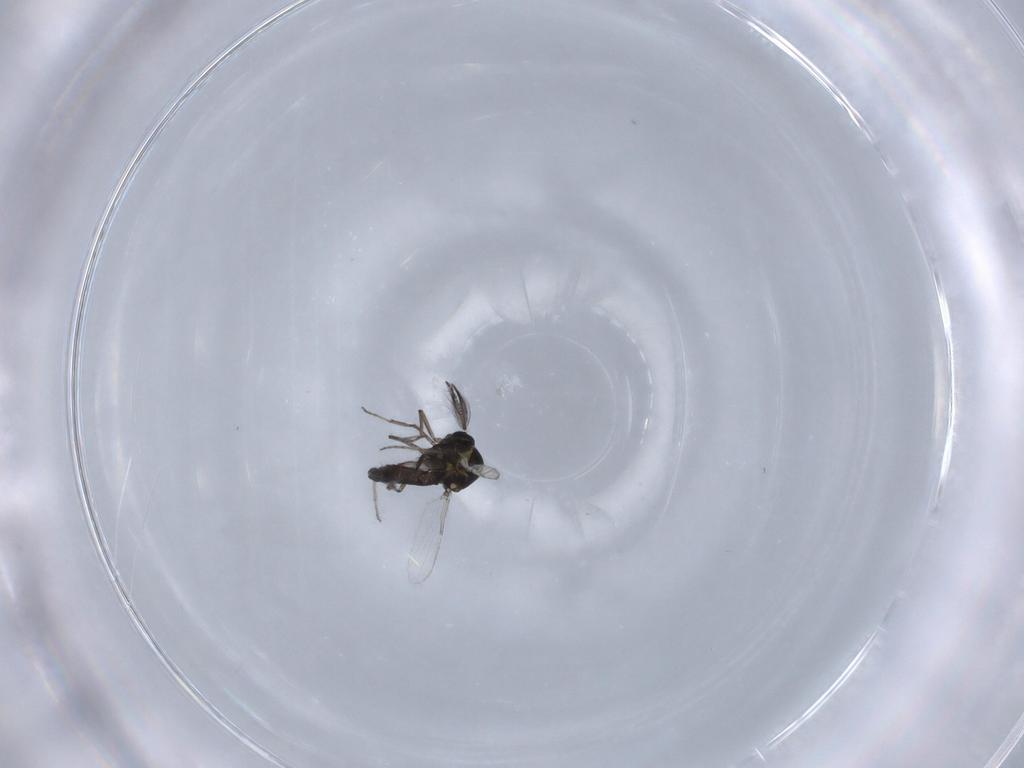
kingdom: Animalia
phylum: Arthropoda
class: Insecta
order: Diptera
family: Ceratopogonidae
